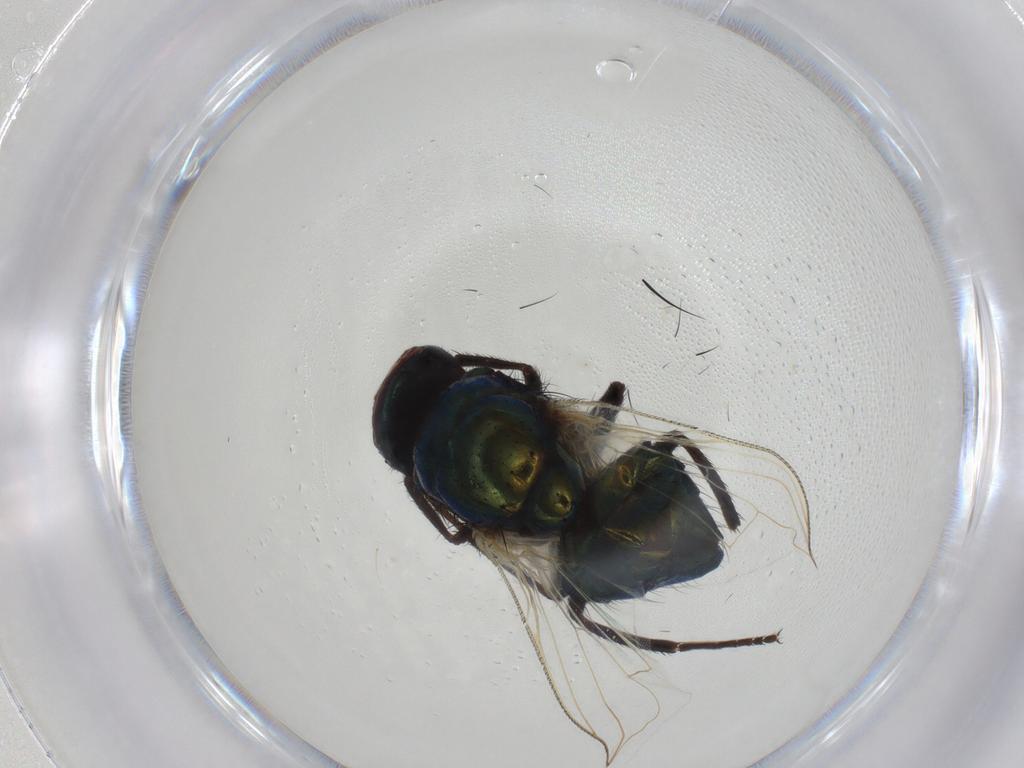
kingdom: Animalia
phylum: Arthropoda
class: Insecta
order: Diptera
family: Muscidae
